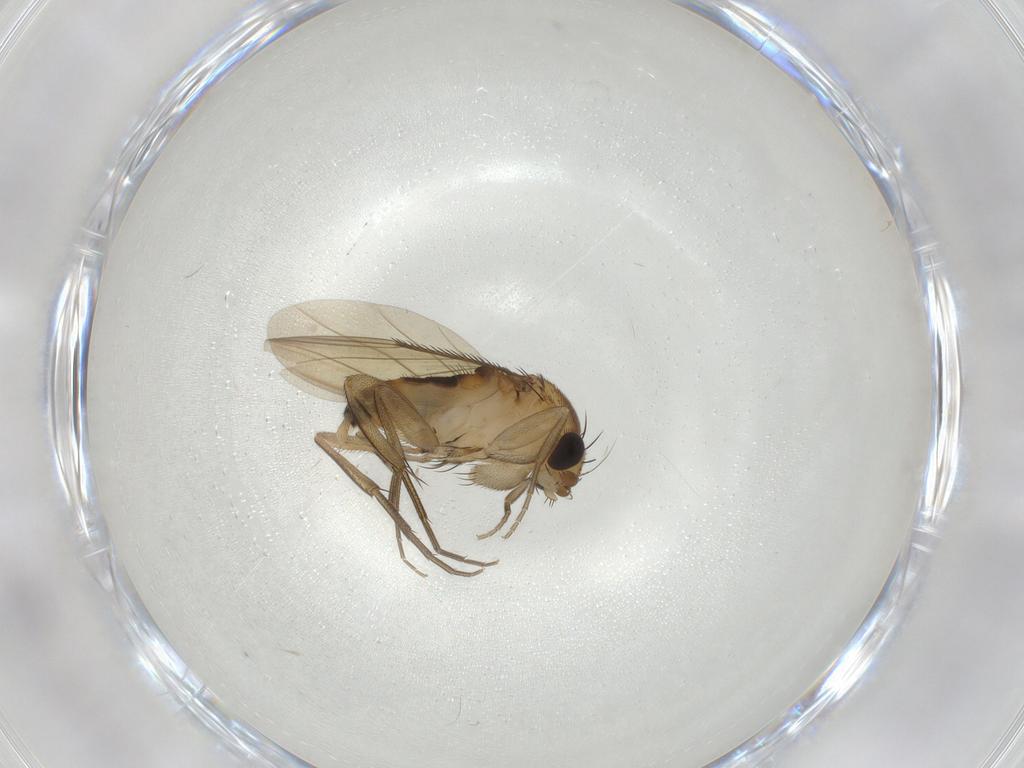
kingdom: Animalia
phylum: Arthropoda
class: Insecta
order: Diptera
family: Phoridae
